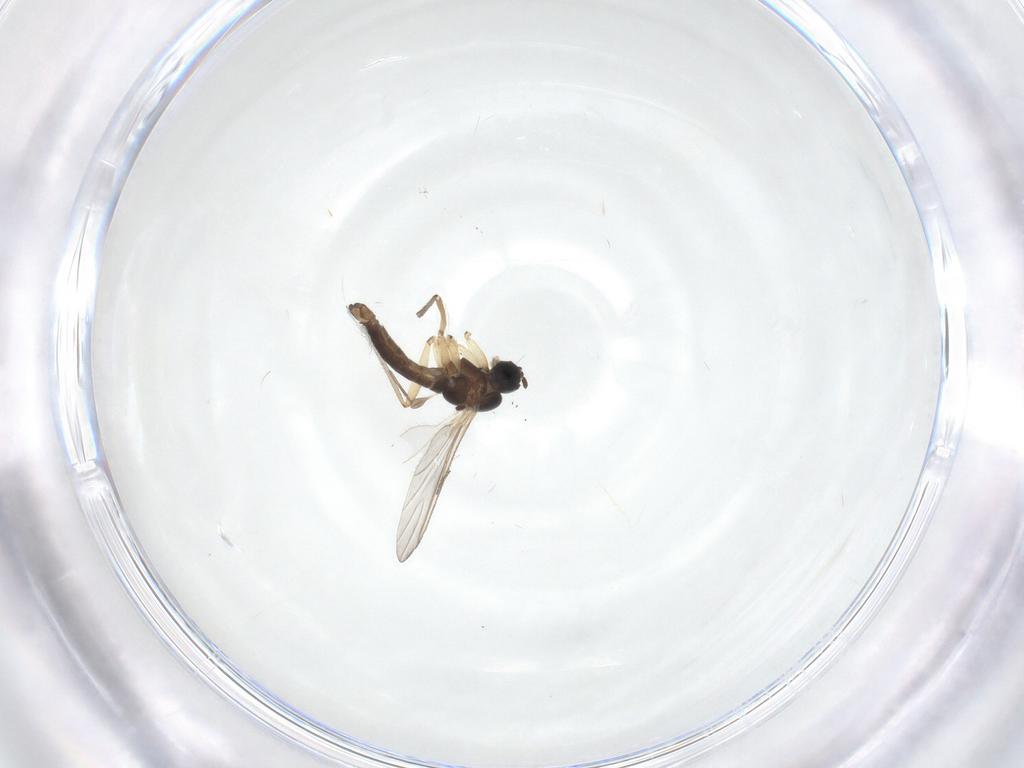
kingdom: Animalia
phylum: Arthropoda
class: Insecta
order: Diptera
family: Sciaridae
